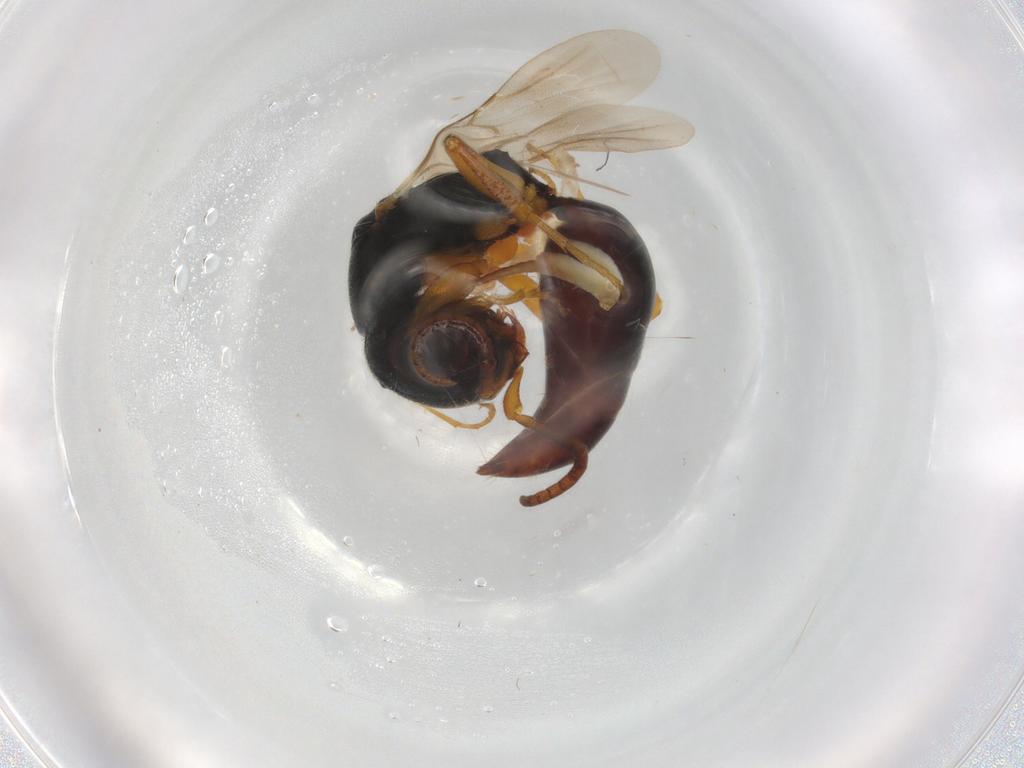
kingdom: Animalia
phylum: Arthropoda
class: Insecta
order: Hymenoptera
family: Bethylidae
